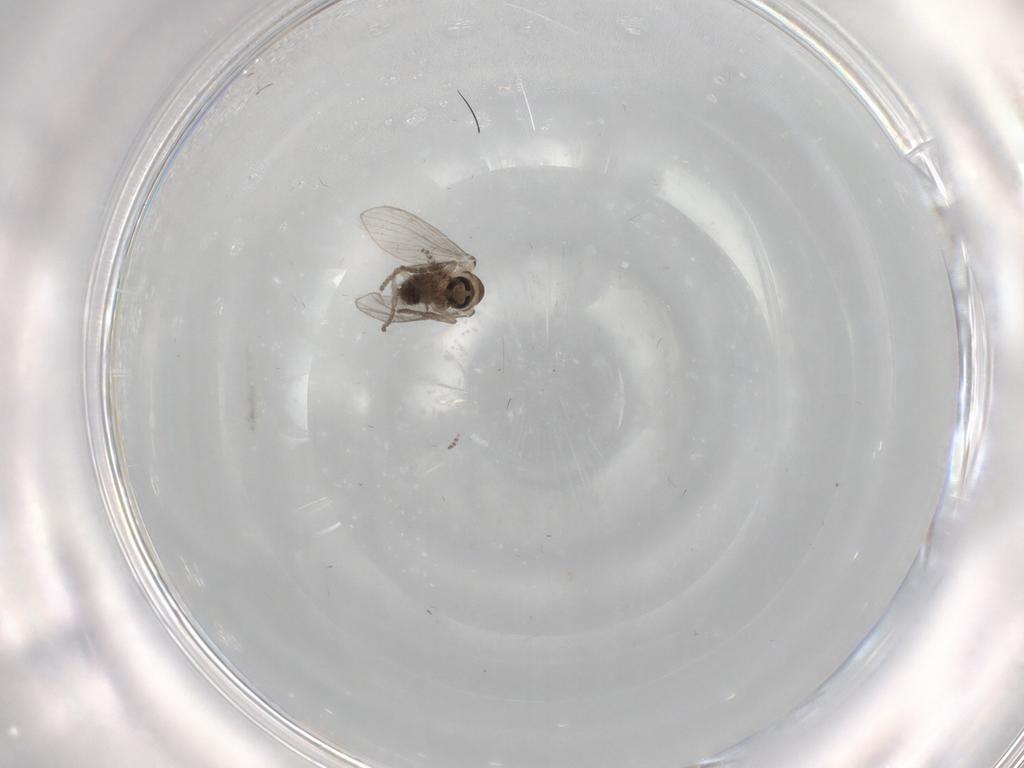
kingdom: Animalia
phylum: Arthropoda
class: Insecta
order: Diptera
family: Psychodidae
